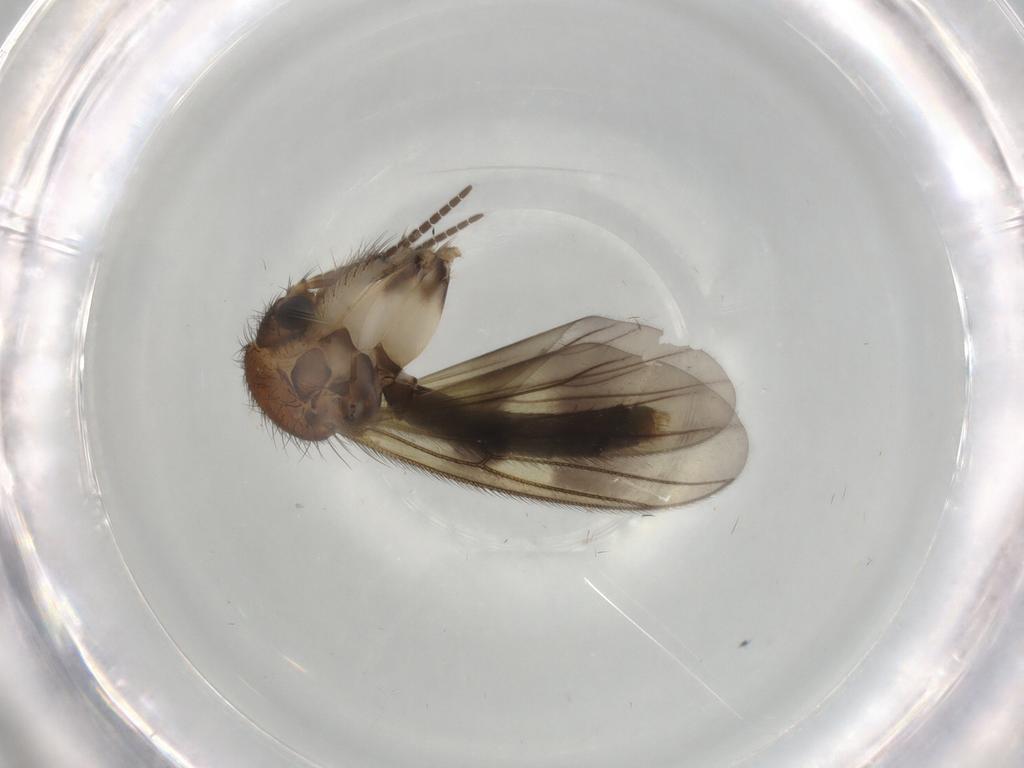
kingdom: Animalia
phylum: Arthropoda
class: Insecta
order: Diptera
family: Mycetophilidae
